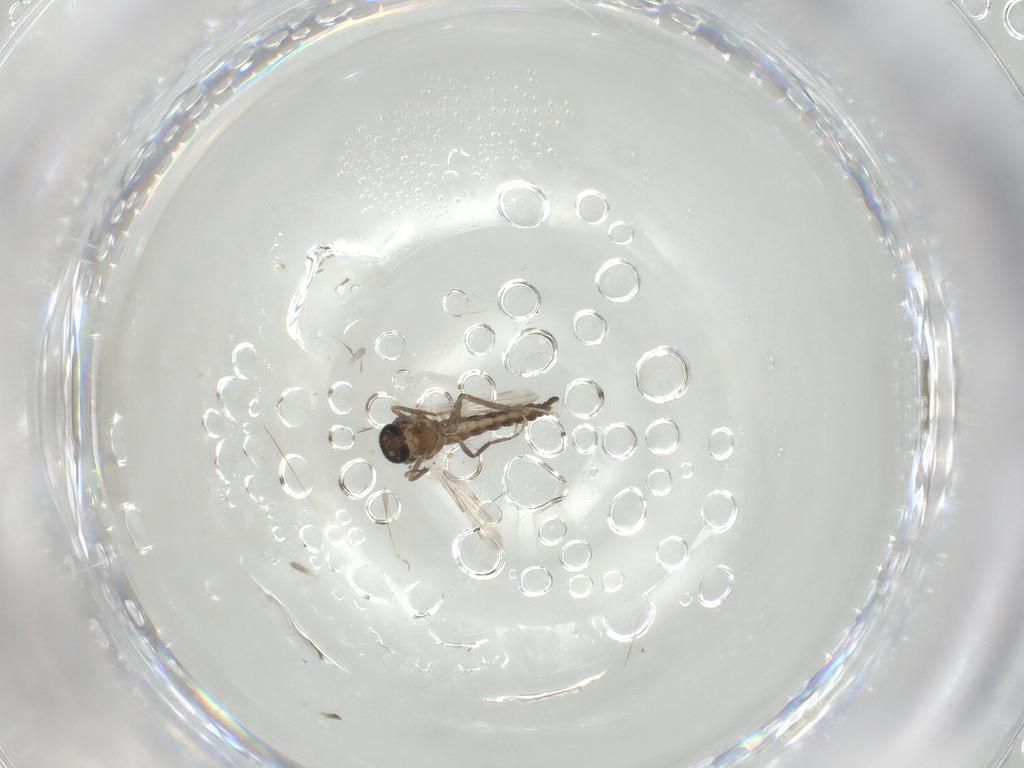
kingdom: Animalia
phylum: Arthropoda
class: Insecta
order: Diptera
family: Ceratopogonidae
